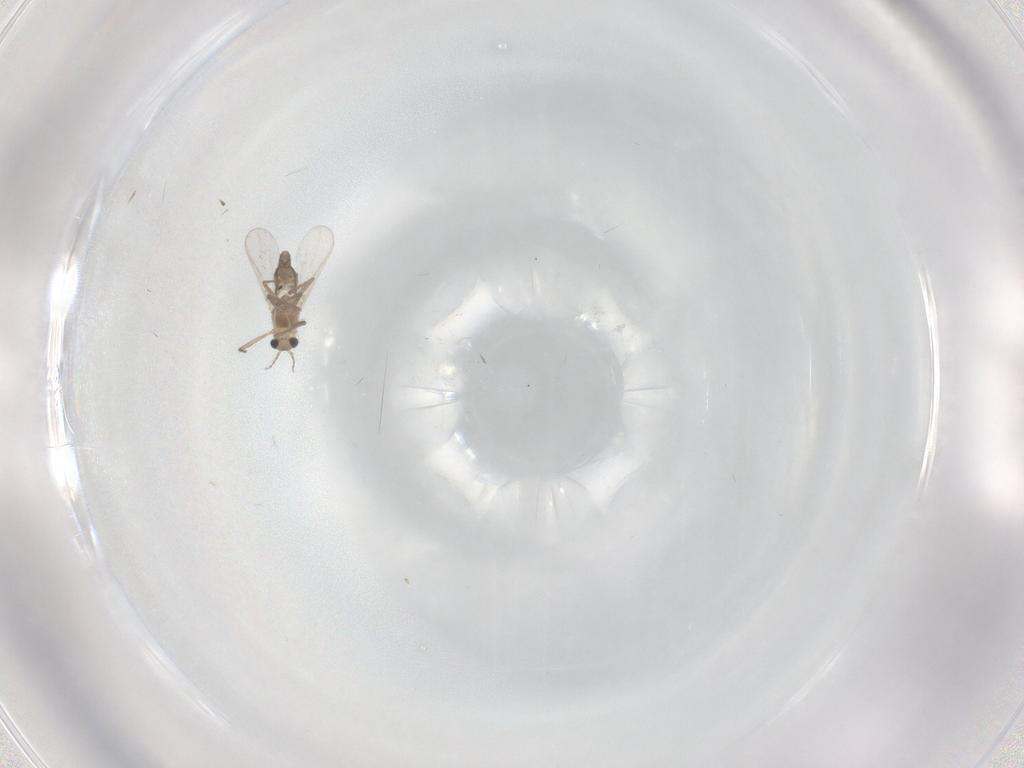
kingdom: Animalia
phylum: Arthropoda
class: Insecta
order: Diptera
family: Chironomidae
